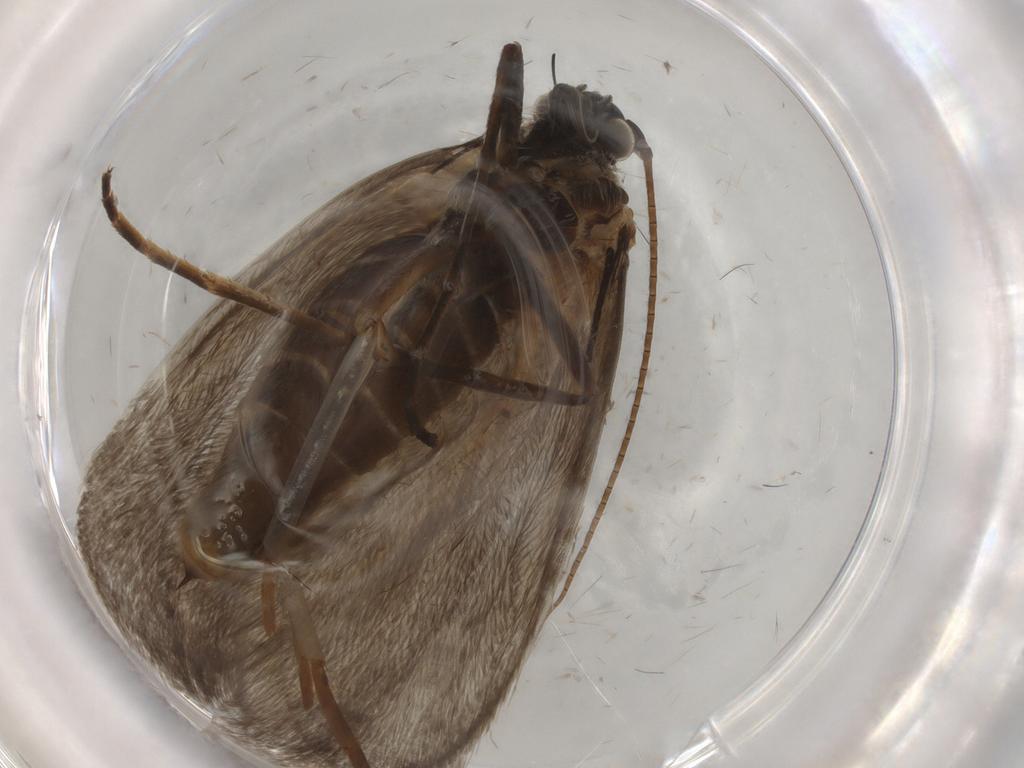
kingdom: Animalia
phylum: Arthropoda
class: Insecta
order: Lepidoptera
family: Adelidae
